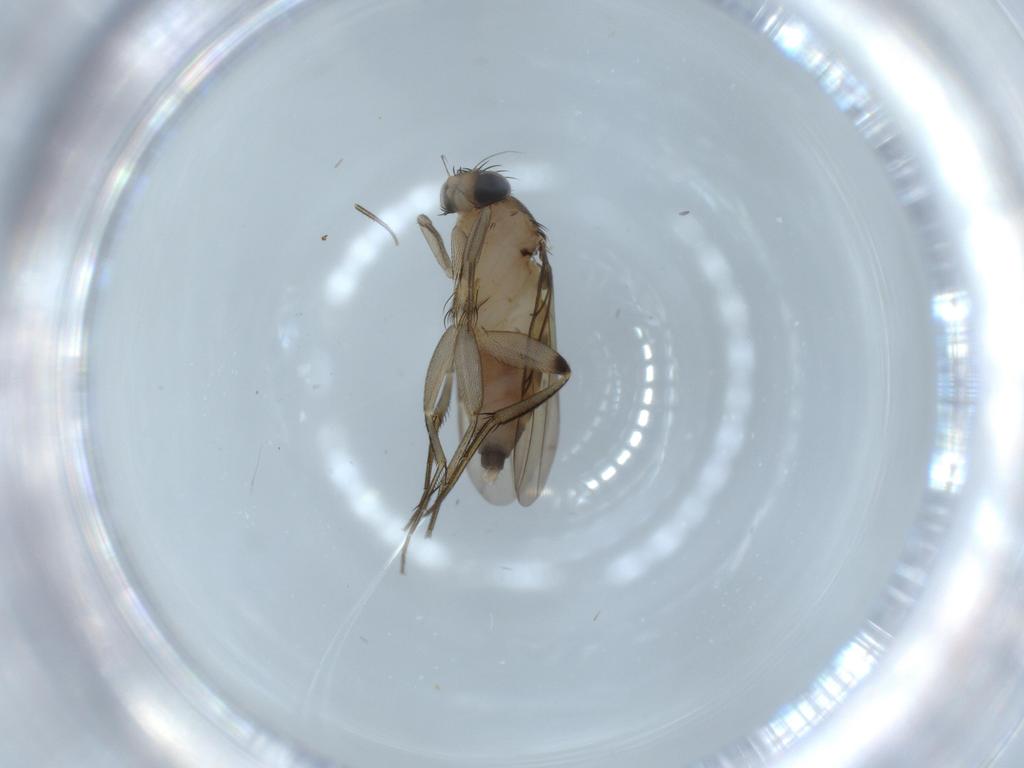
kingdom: Animalia
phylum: Arthropoda
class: Insecta
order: Diptera
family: Phoridae
